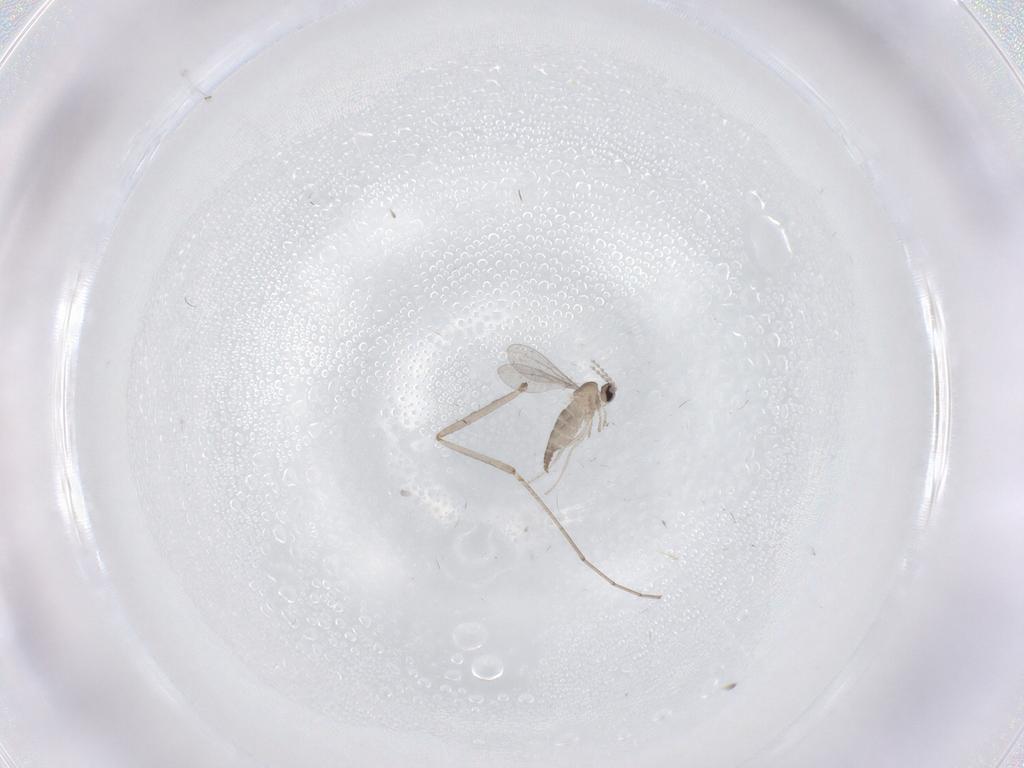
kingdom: Animalia
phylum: Arthropoda
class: Insecta
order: Diptera
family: Cecidomyiidae
